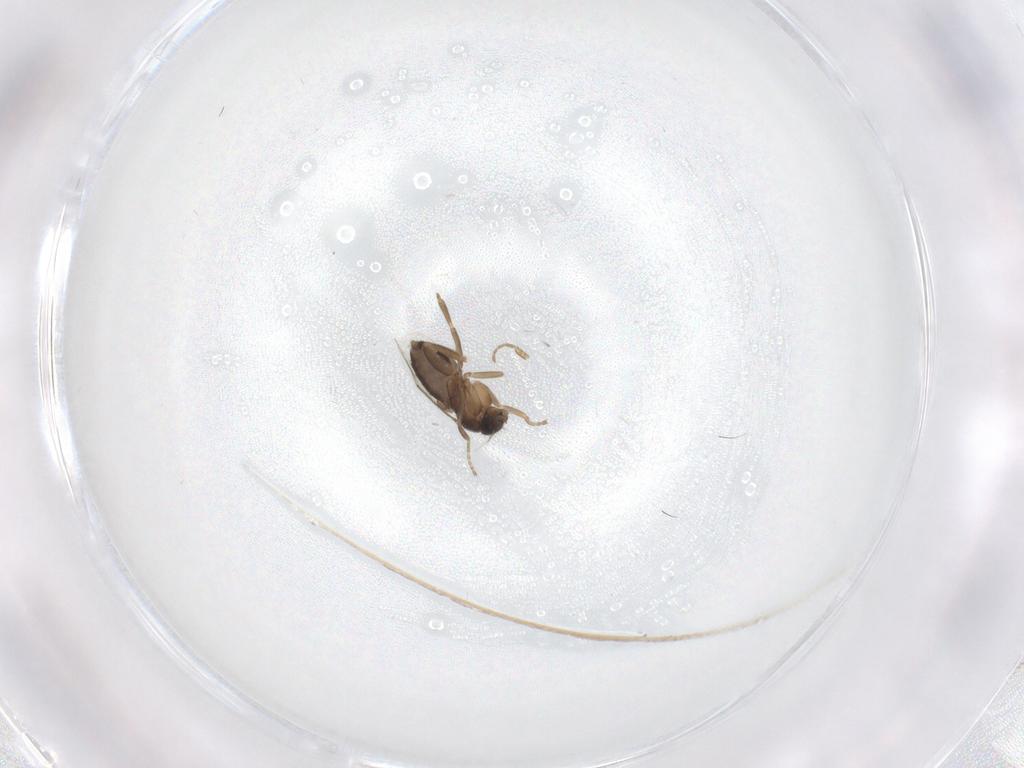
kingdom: Animalia
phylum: Arthropoda
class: Insecta
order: Diptera
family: Phoridae
